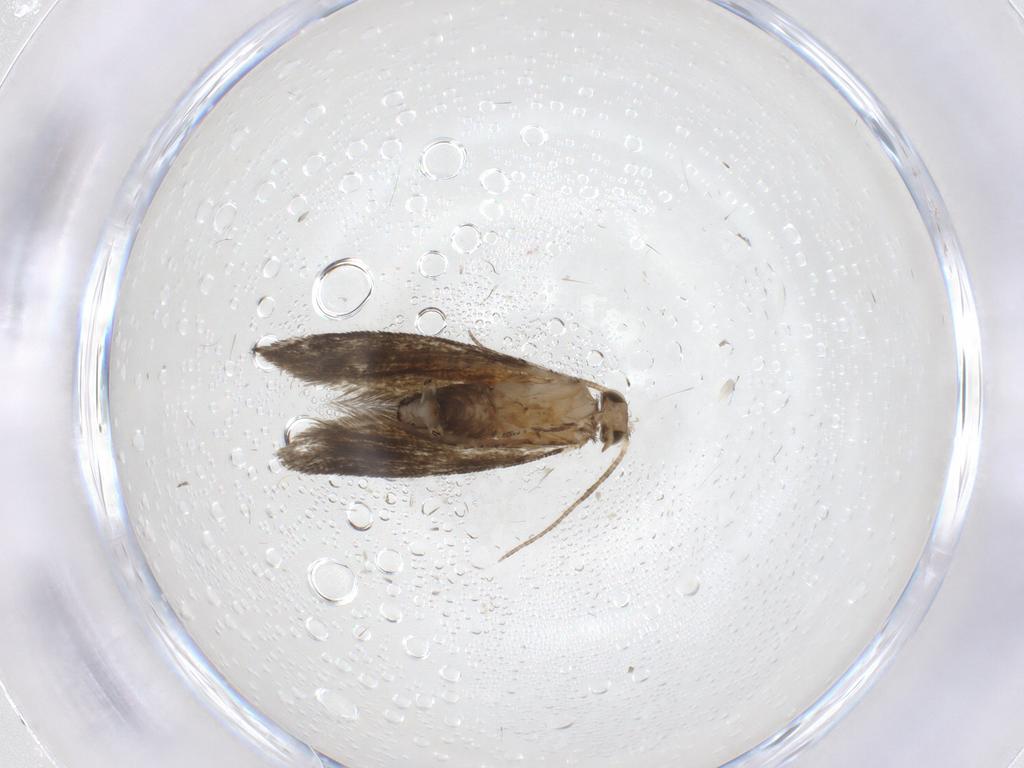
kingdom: Animalia
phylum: Arthropoda
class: Insecta
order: Lepidoptera
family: Crambidae
